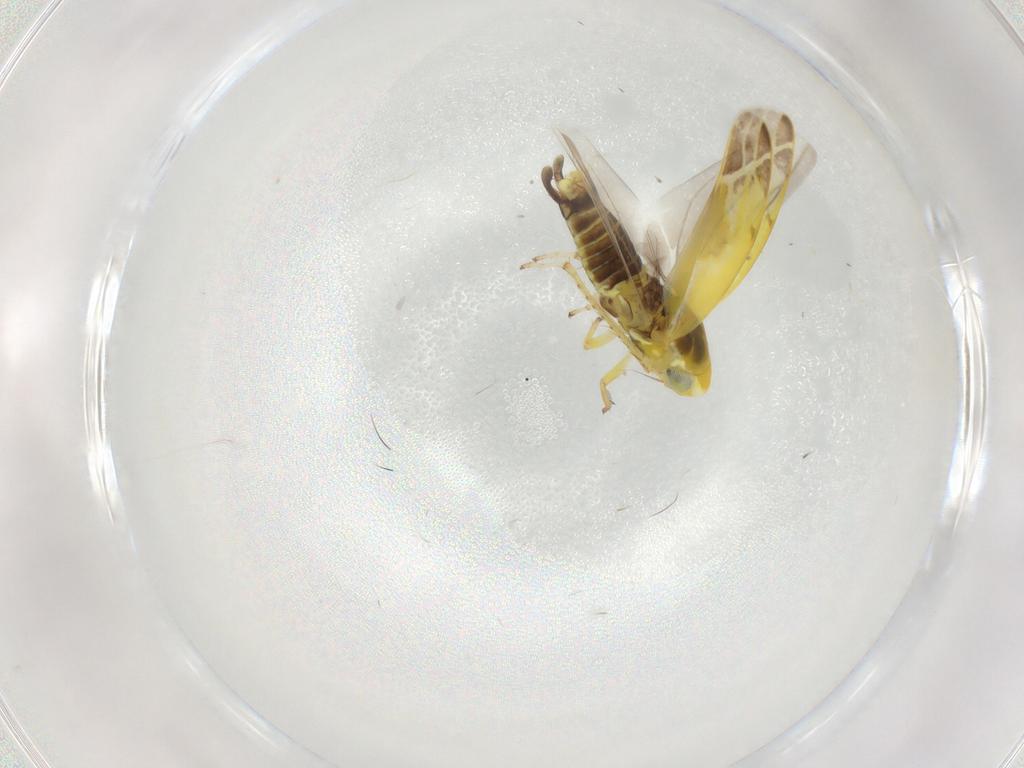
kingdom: Animalia
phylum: Arthropoda
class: Insecta
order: Hemiptera
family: Cicadellidae
